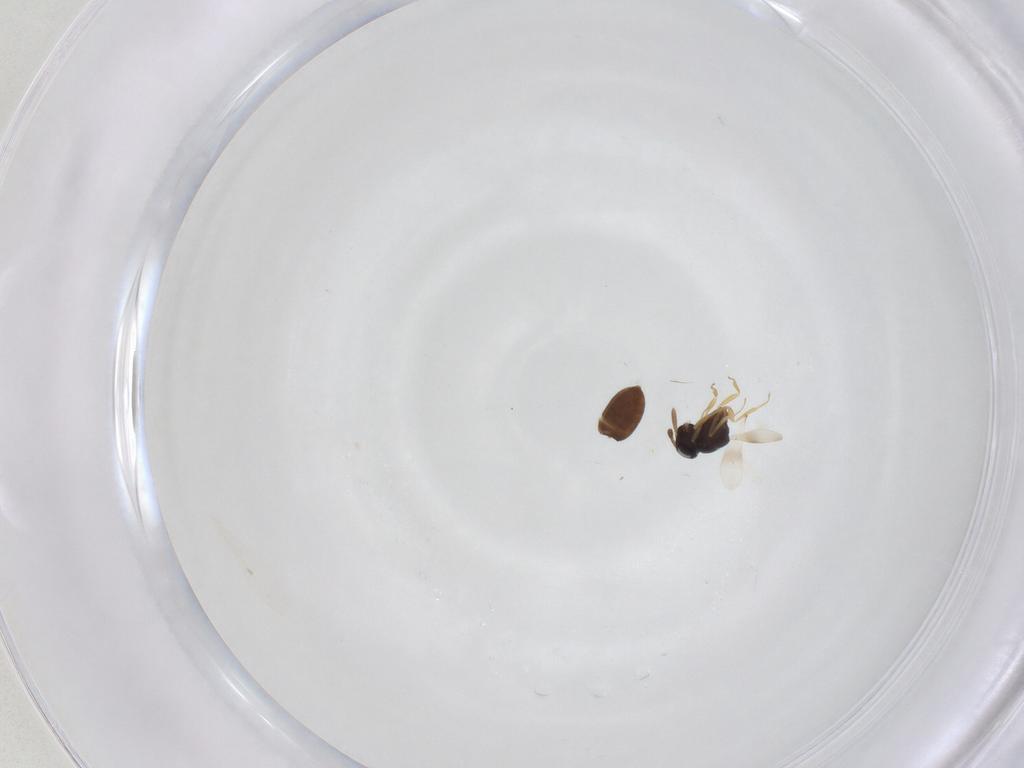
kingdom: Animalia
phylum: Arthropoda
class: Insecta
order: Hymenoptera
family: Scelionidae
